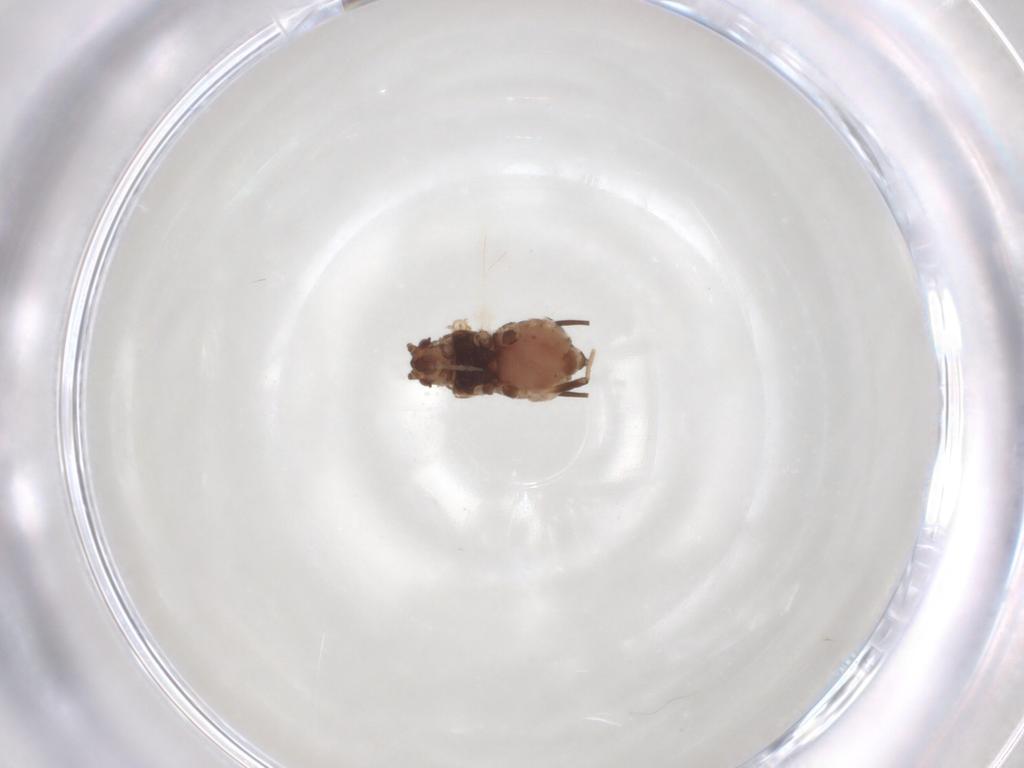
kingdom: Animalia
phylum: Arthropoda
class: Insecta
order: Hemiptera
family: Aphididae
